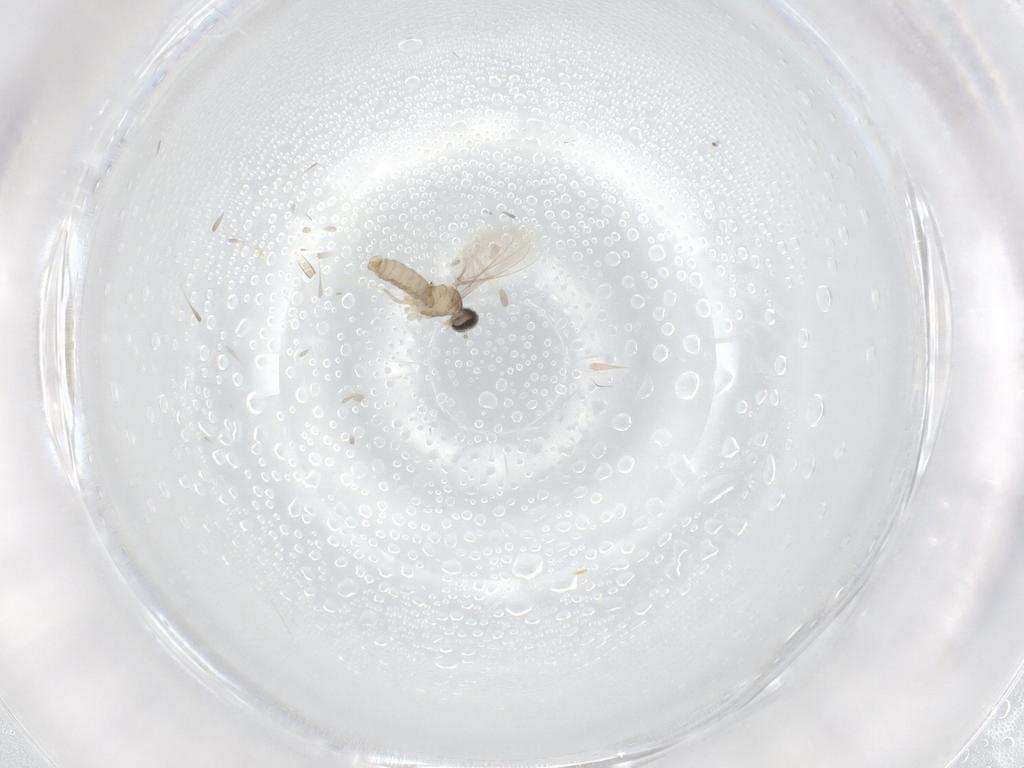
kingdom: Animalia
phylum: Arthropoda
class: Insecta
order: Diptera
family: Cecidomyiidae
